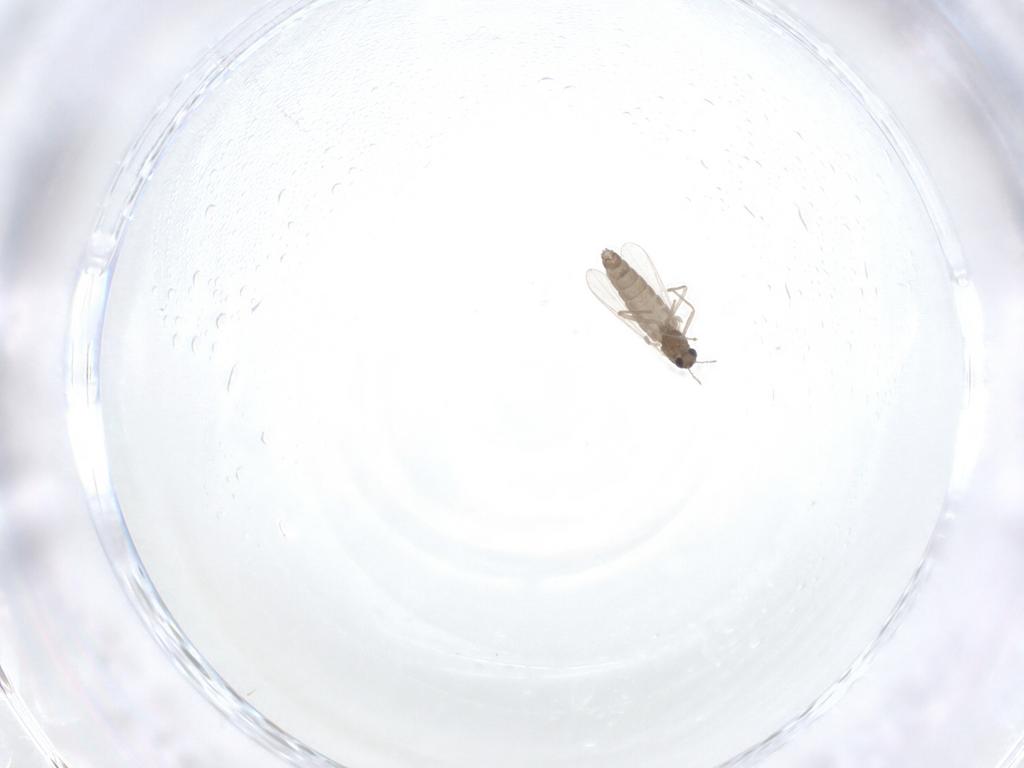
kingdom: Animalia
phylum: Arthropoda
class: Insecta
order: Diptera
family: Chironomidae
